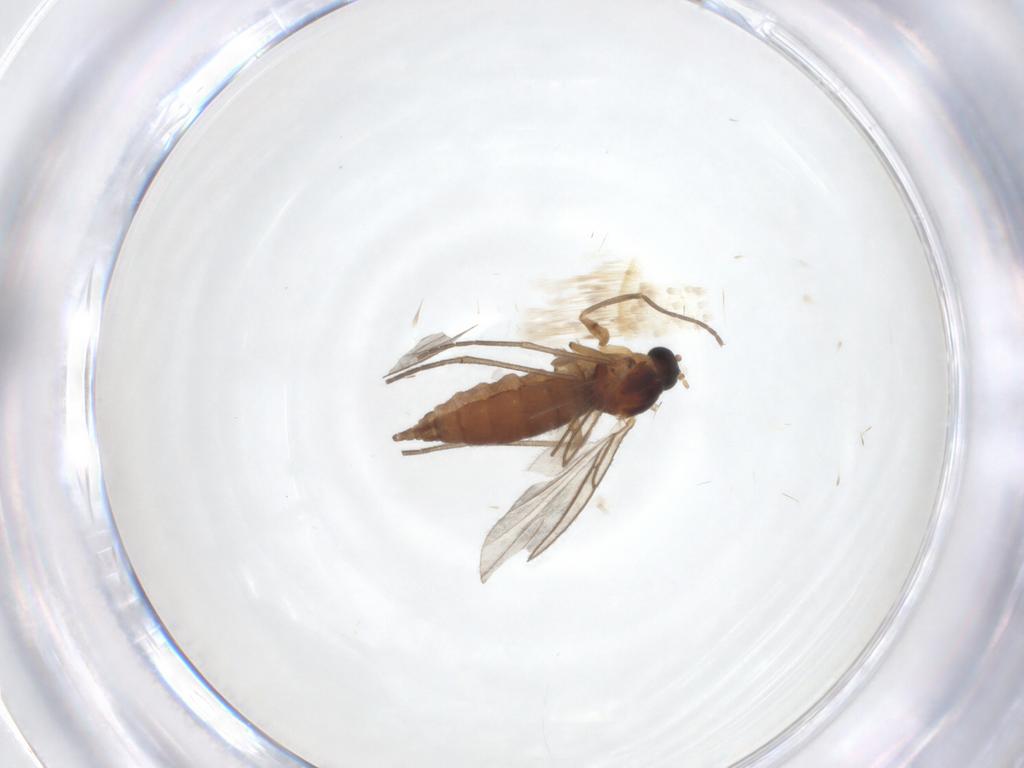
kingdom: Animalia
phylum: Arthropoda
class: Insecta
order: Diptera
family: Sciaridae
